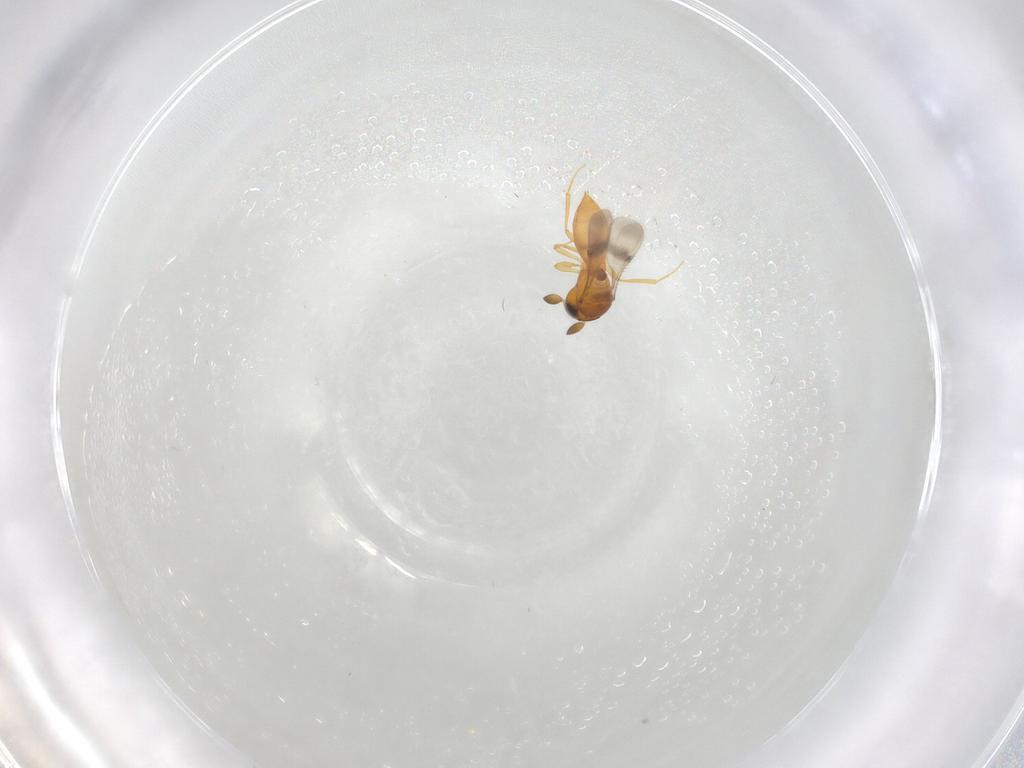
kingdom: Animalia
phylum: Arthropoda
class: Insecta
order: Hymenoptera
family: Scelionidae
